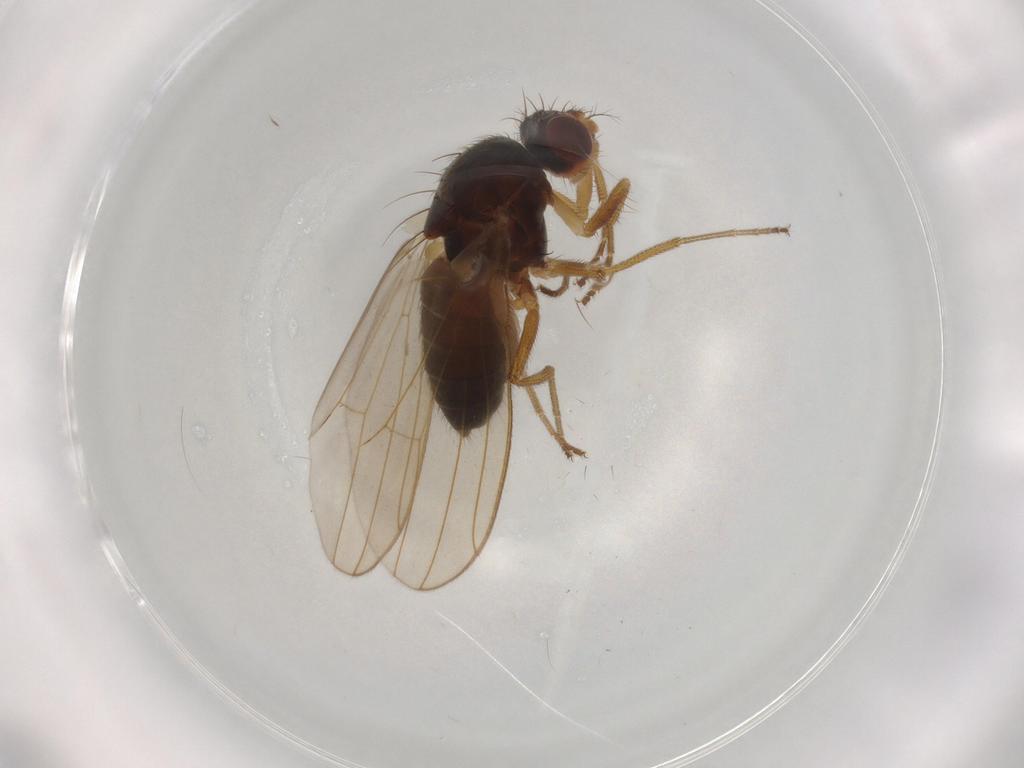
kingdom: Animalia
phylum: Arthropoda
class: Insecta
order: Diptera
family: Drosophilidae
